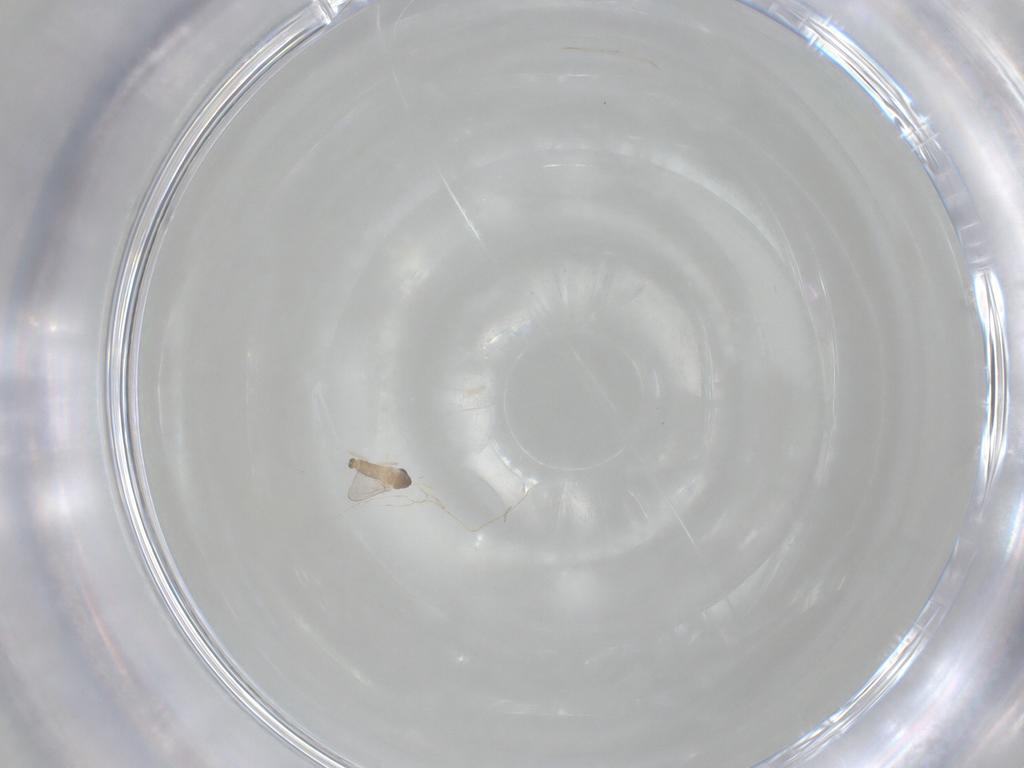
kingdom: Animalia
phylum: Arthropoda
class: Insecta
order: Diptera
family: Cecidomyiidae
